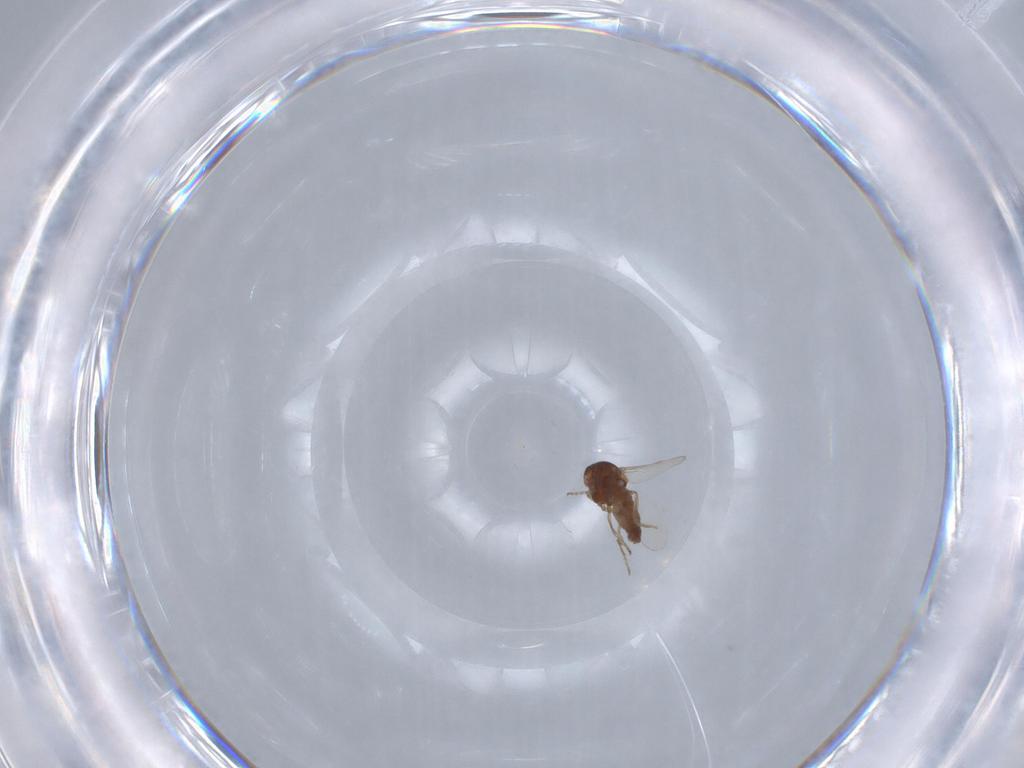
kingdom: Animalia
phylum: Arthropoda
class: Insecta
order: Diptera
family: Ceratopogonidae
